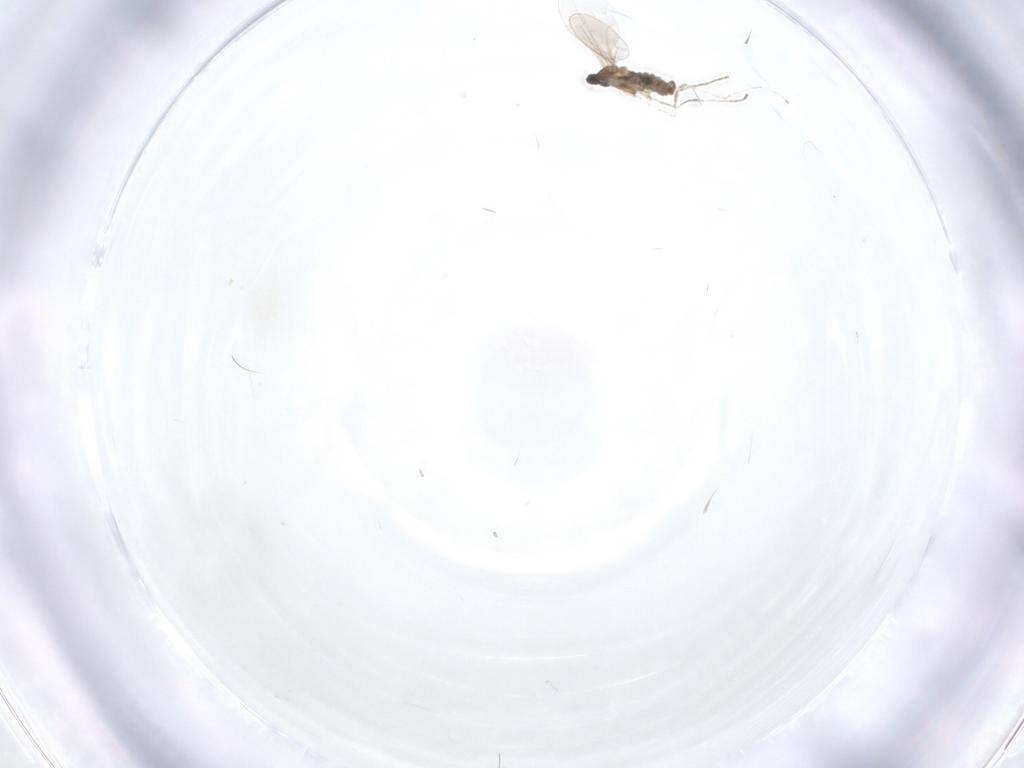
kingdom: Animalia
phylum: Arthropoda
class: Insecta
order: Diptera
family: Cecidomyiidae
